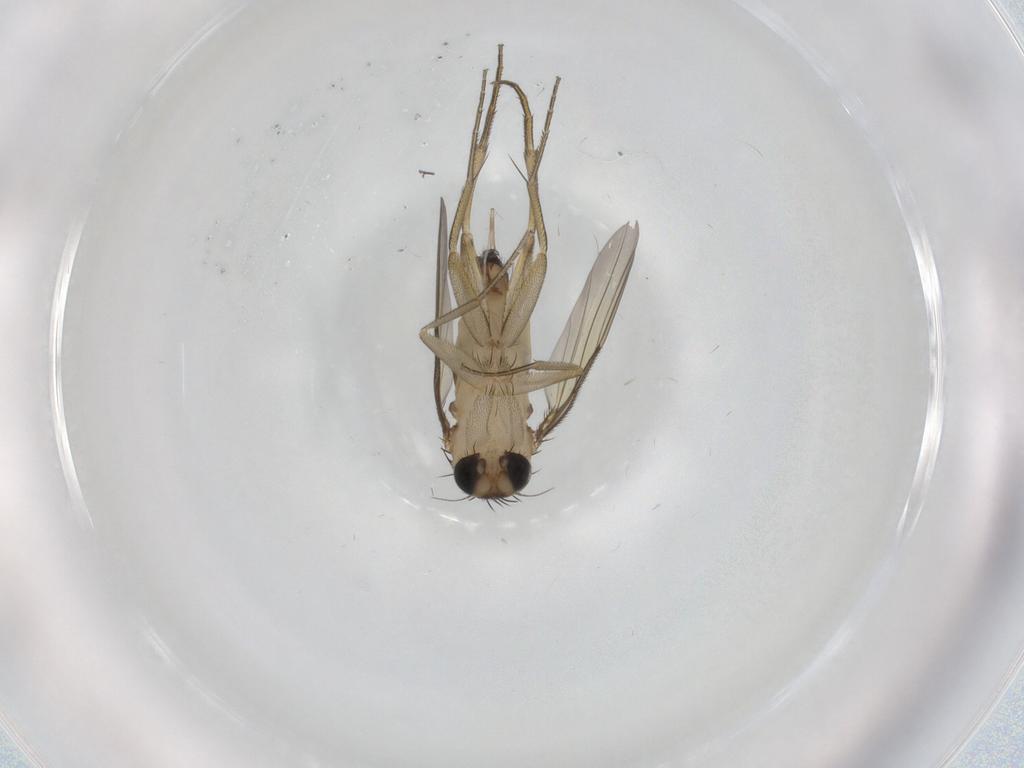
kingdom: Animalia
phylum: Arthropoda
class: Insecta
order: Diptera
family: Phoridae
